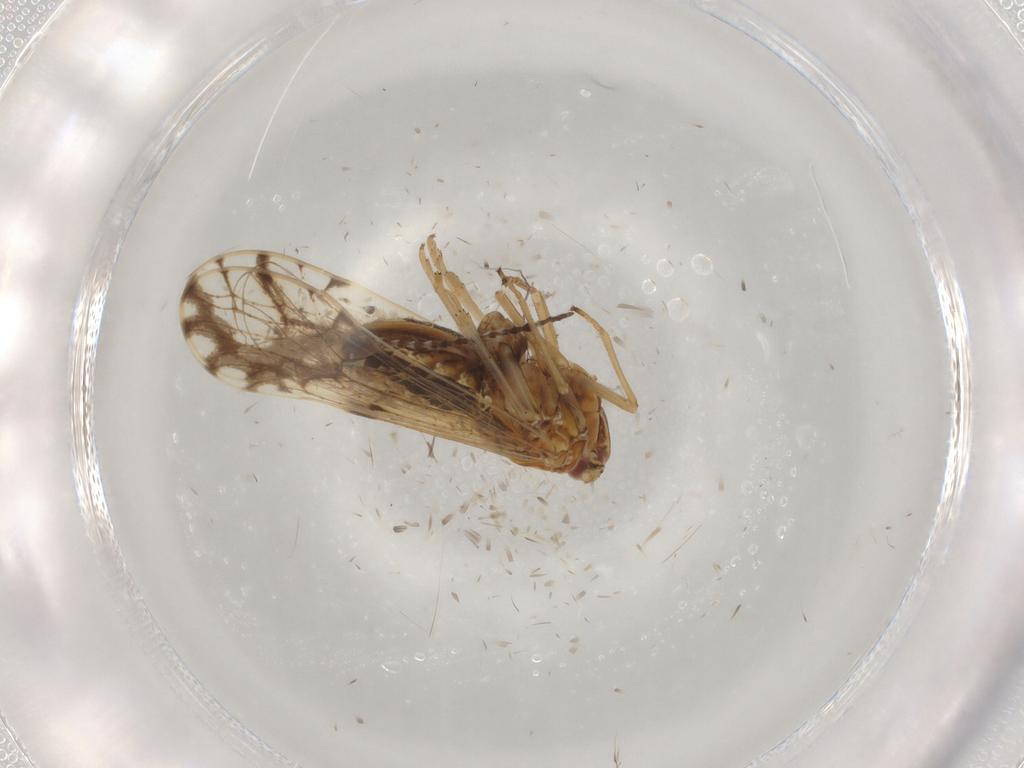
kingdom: Animalia
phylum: Arthropoda
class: Insecta
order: Hemiptera
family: Delphacidae
